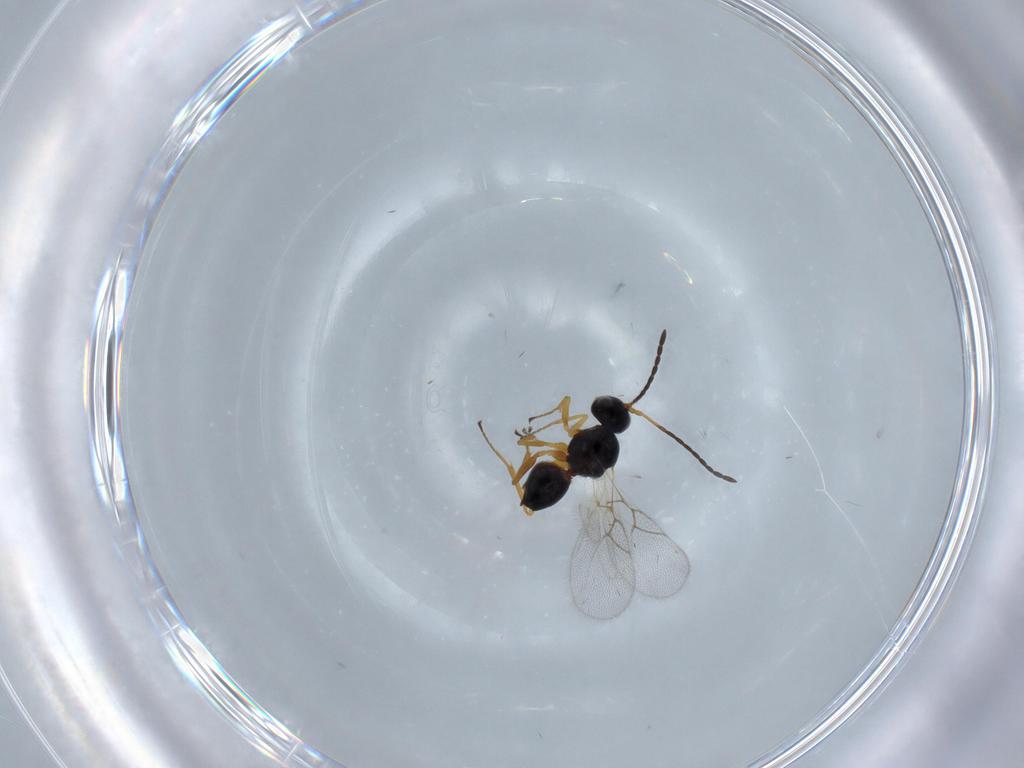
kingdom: Animalia
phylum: Arthropoda
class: Insecta
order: Hymenoptera
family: Figitidae
